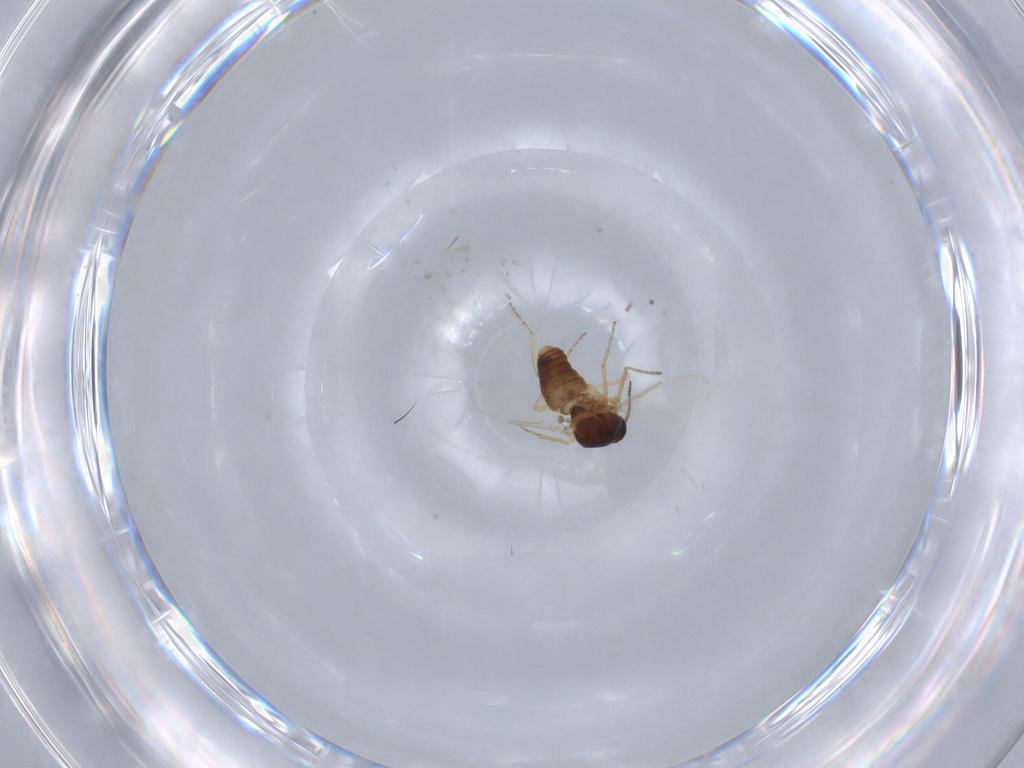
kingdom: Animalia
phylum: Arthropoda
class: Insecta
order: Diptera
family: Ceratopogonidae
